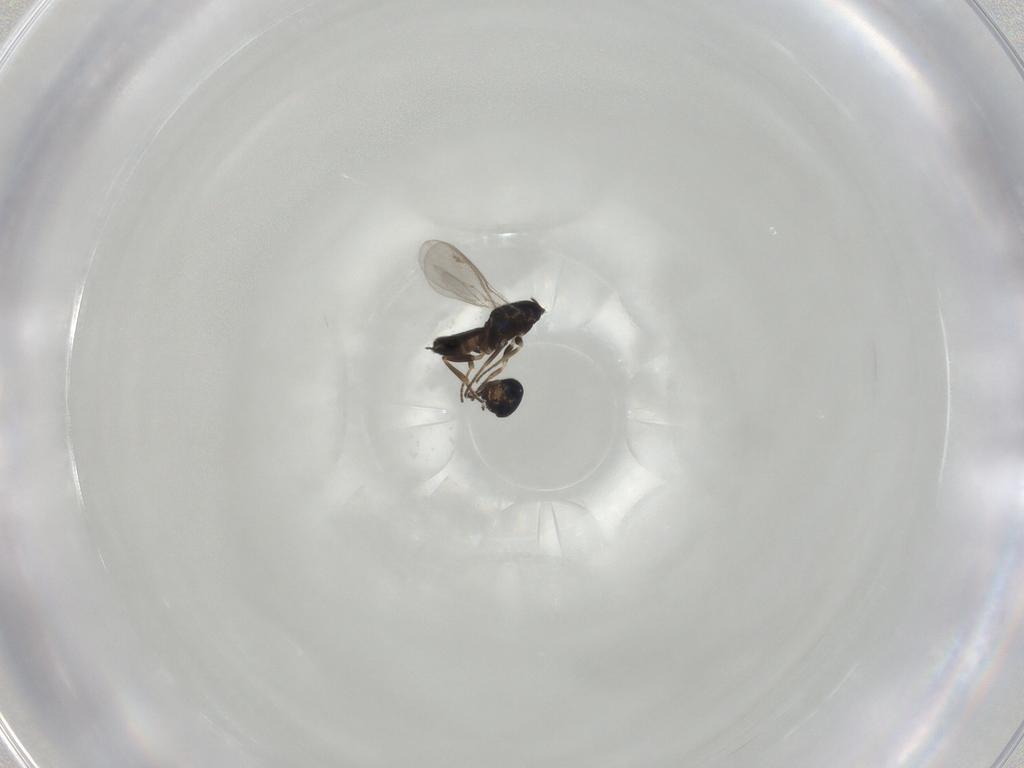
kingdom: Animalia
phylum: Arthropoda
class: Insecta
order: Hymenoptera
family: Eupelmidae
